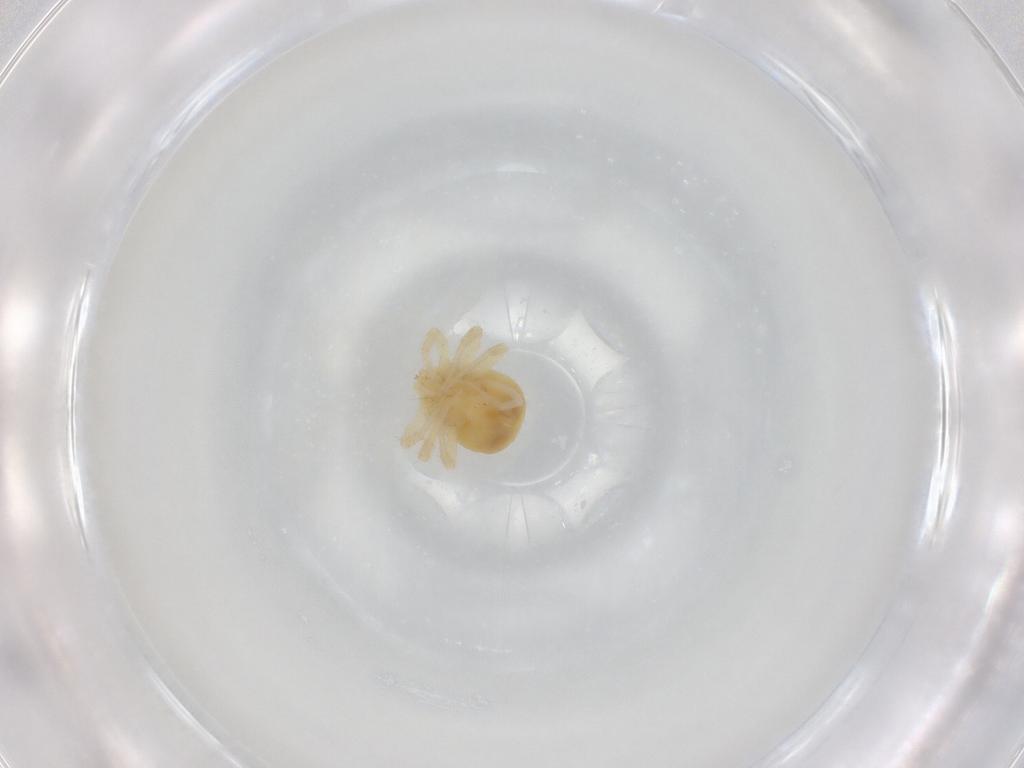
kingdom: Animalia
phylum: Arthropoda
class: Arachnida
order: Trombidiformes
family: Anystidae
